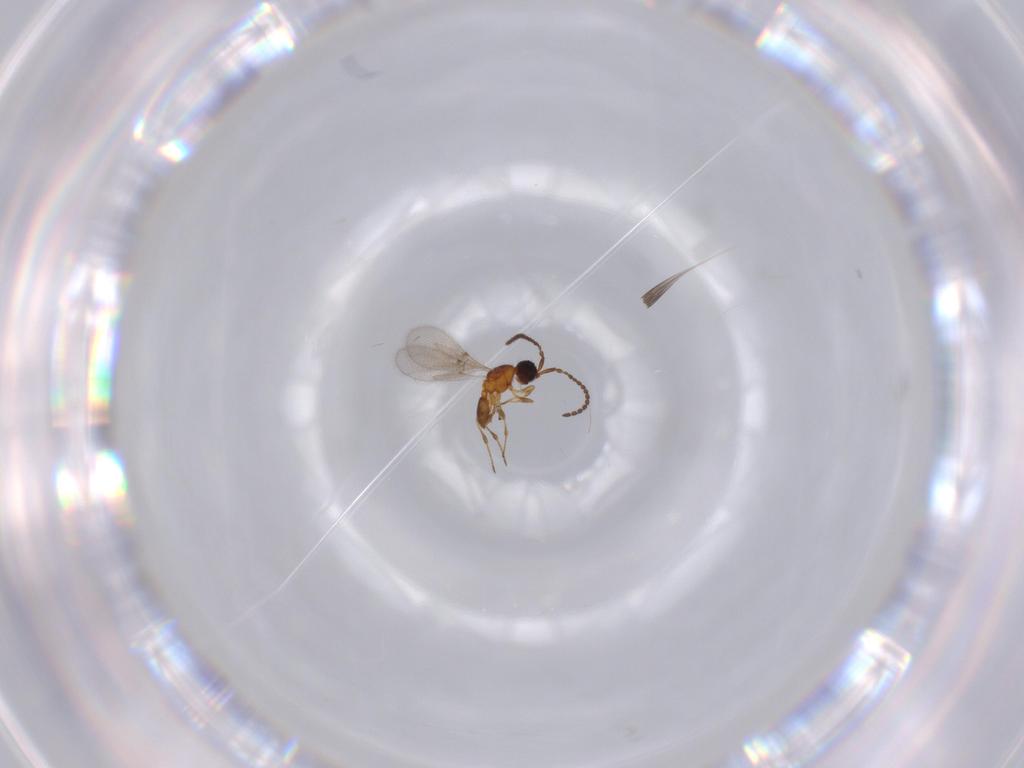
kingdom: Animalia
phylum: Arthropoda
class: Insecta
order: Hymenoptera
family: Diapriidae
